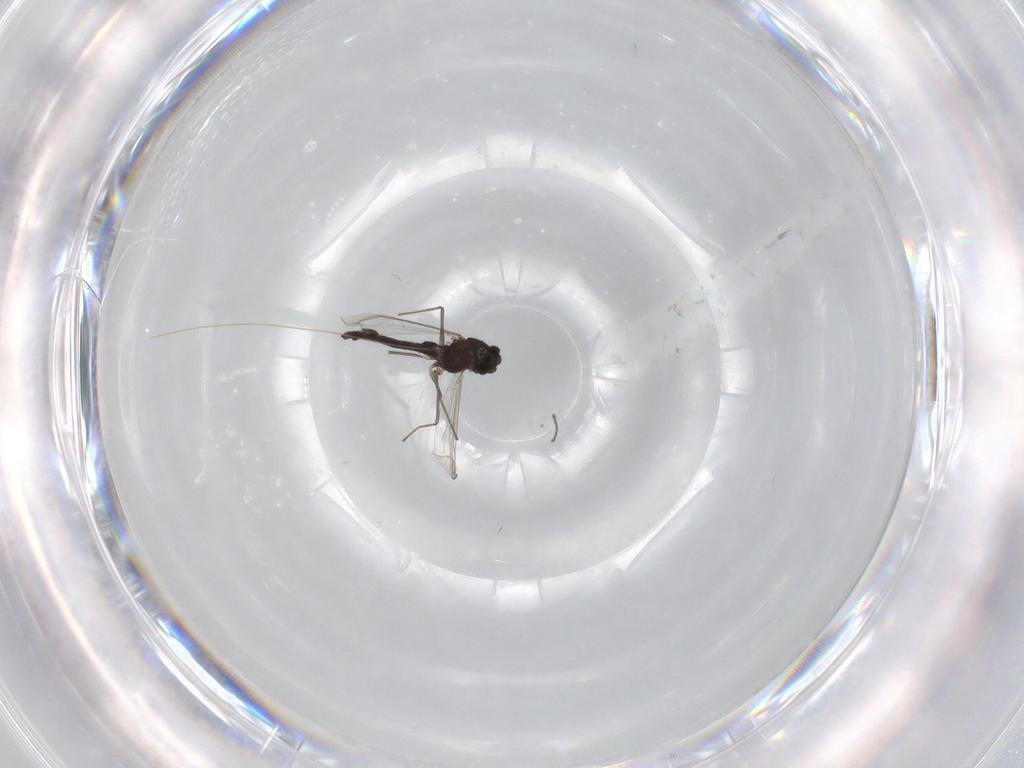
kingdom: Animalia
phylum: Arthropoda
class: Insecta
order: Diptera
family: Chironomidae
